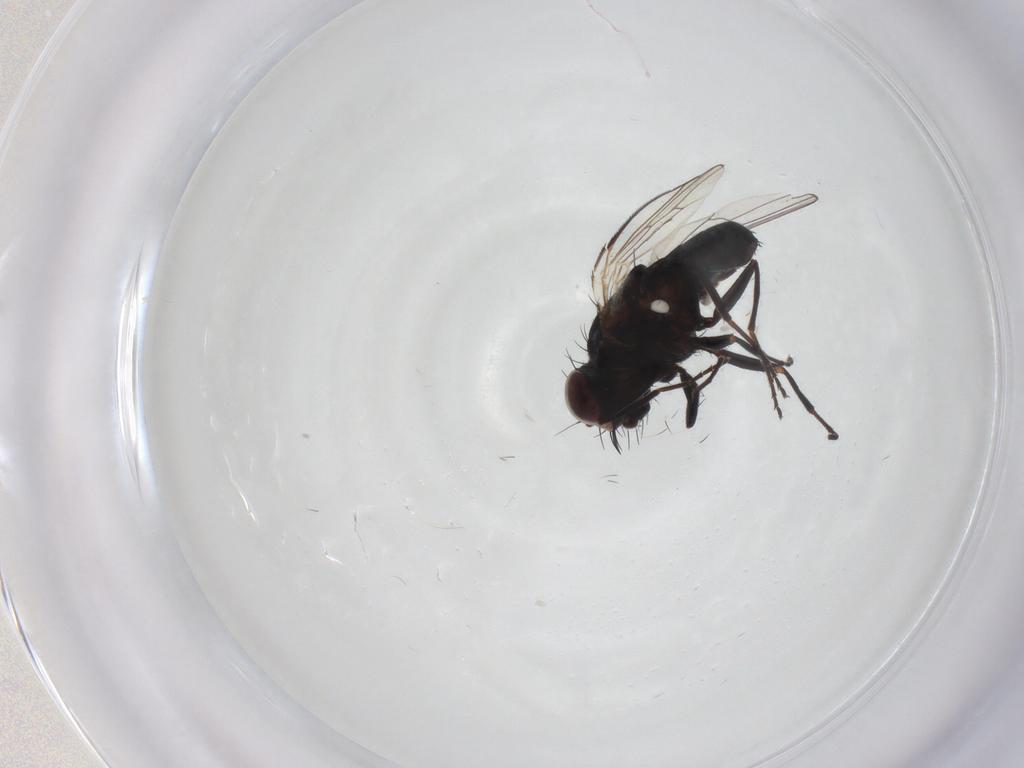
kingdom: Animalia
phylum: Arthropoda
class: Insecta
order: Diptera
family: Carnidae
